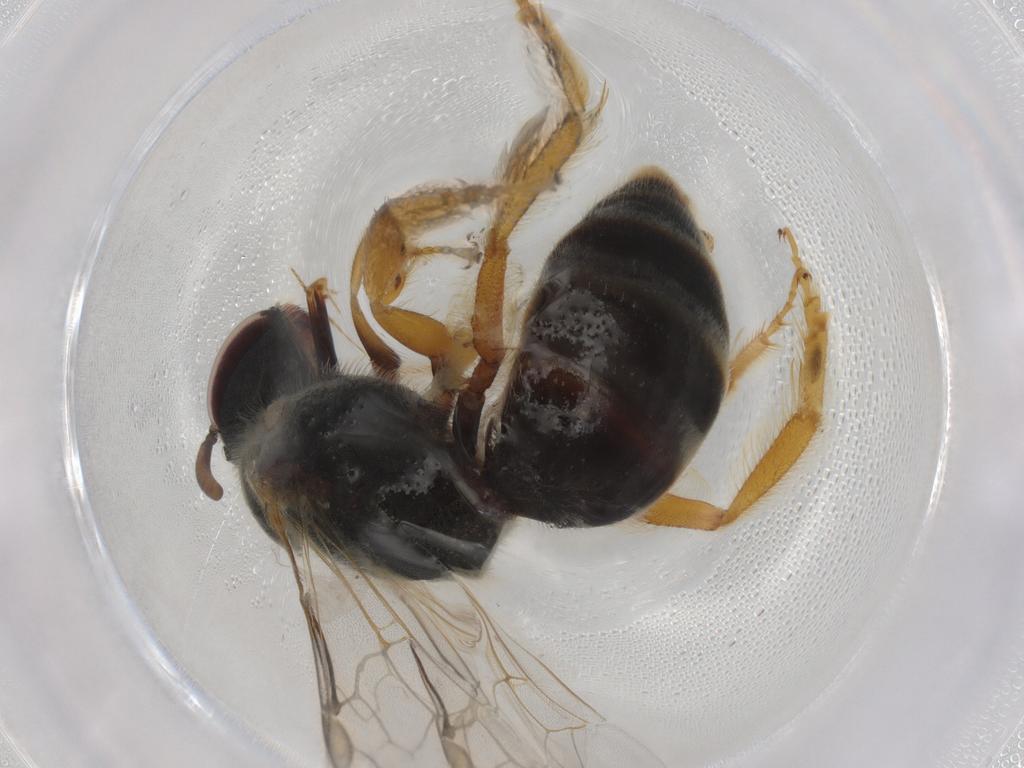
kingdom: Animalia
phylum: Arthropoda
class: Insecta
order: Hymenoptera
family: Halictidae
